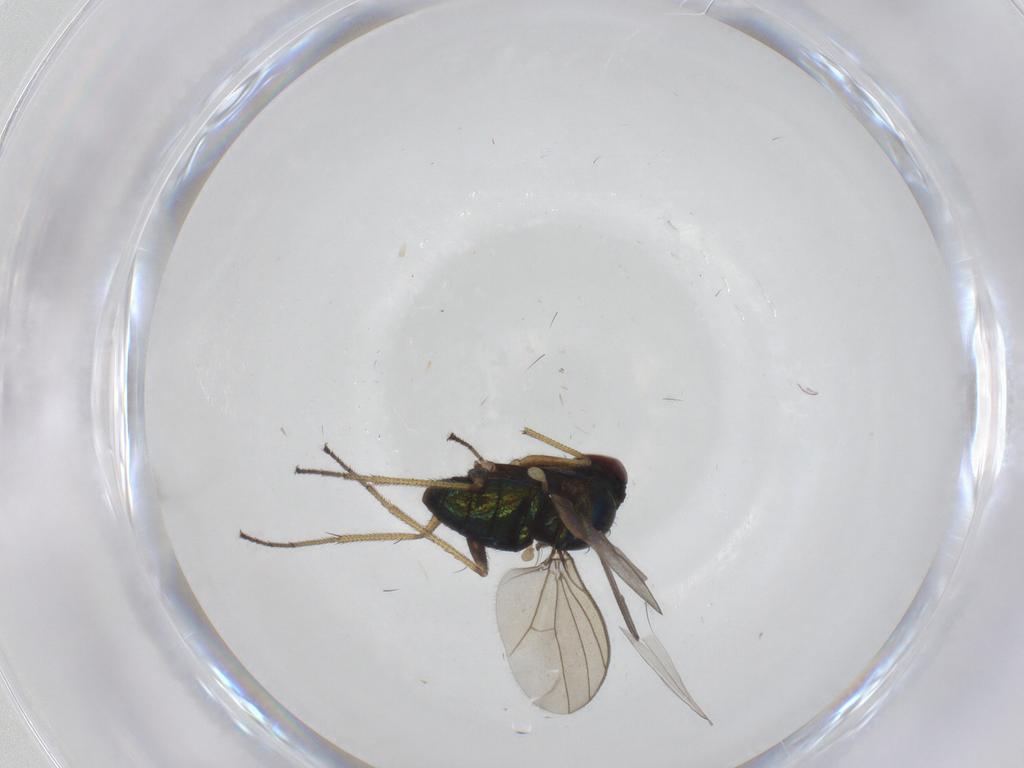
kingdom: Animalia
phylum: Arthropoda
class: Insecta
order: Diptera
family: Dolichopodidae
